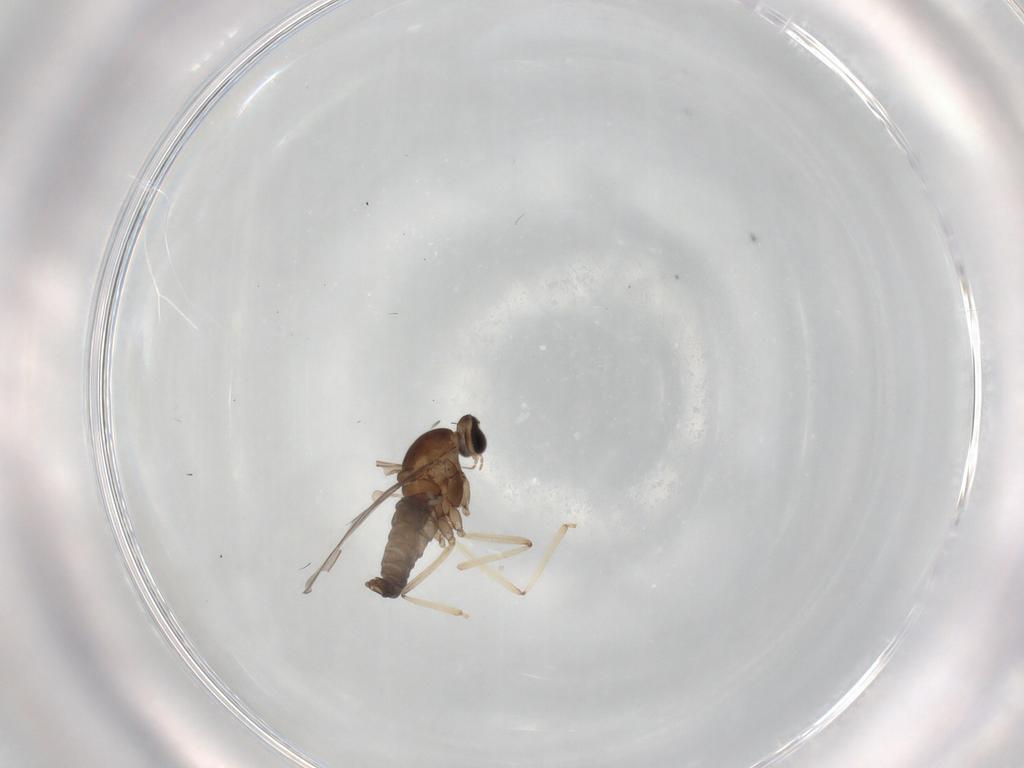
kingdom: Animalia
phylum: Arthropoda
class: Insecta
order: Diptera
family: Cecidomyiidae
